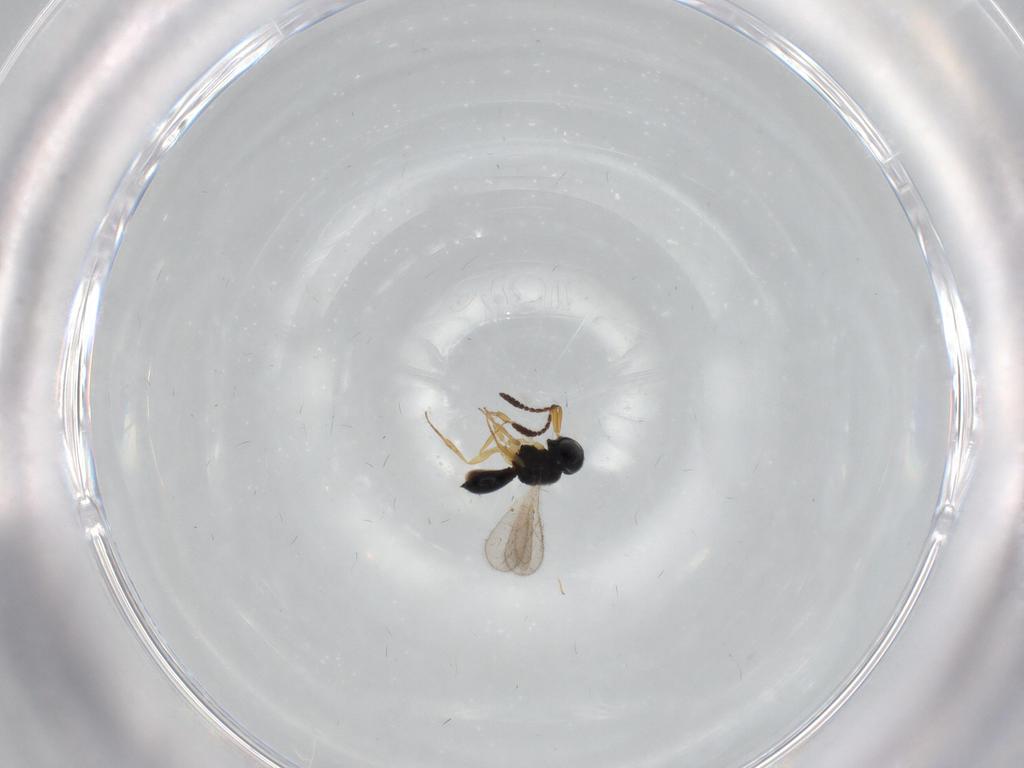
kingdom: Animalia
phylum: Arthropoda
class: Insecta
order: Hymenoptera
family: Scelionidae
